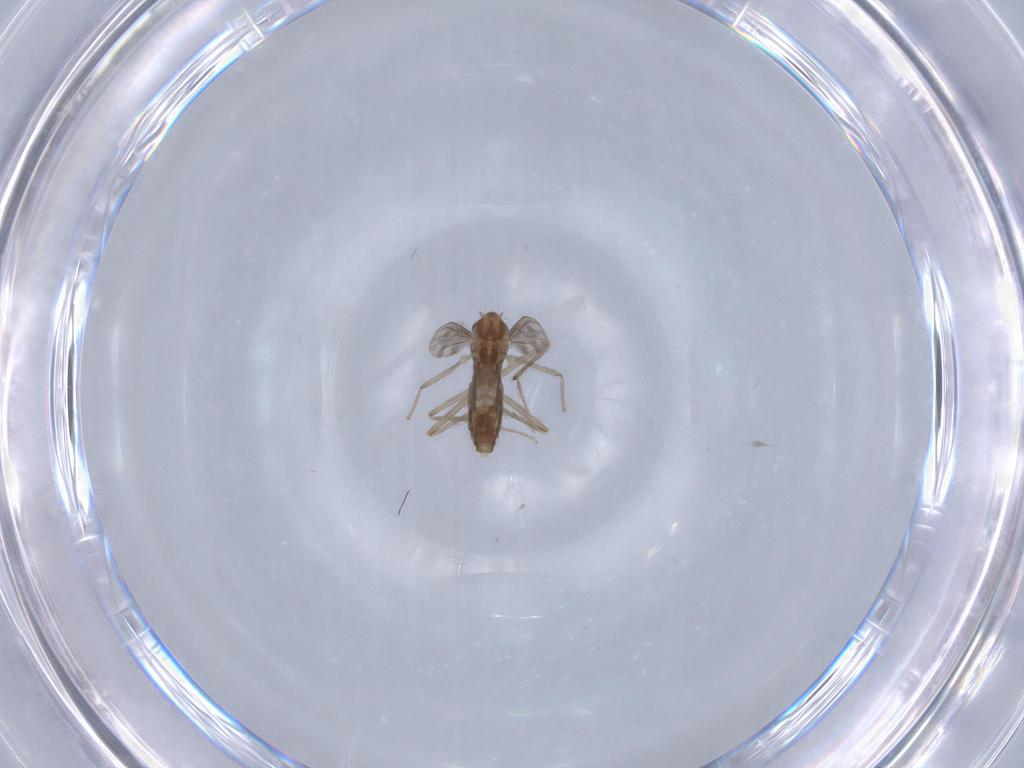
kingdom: Animalia
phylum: Arthropoda
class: Insecta
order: Diptera
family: Chironomidae
